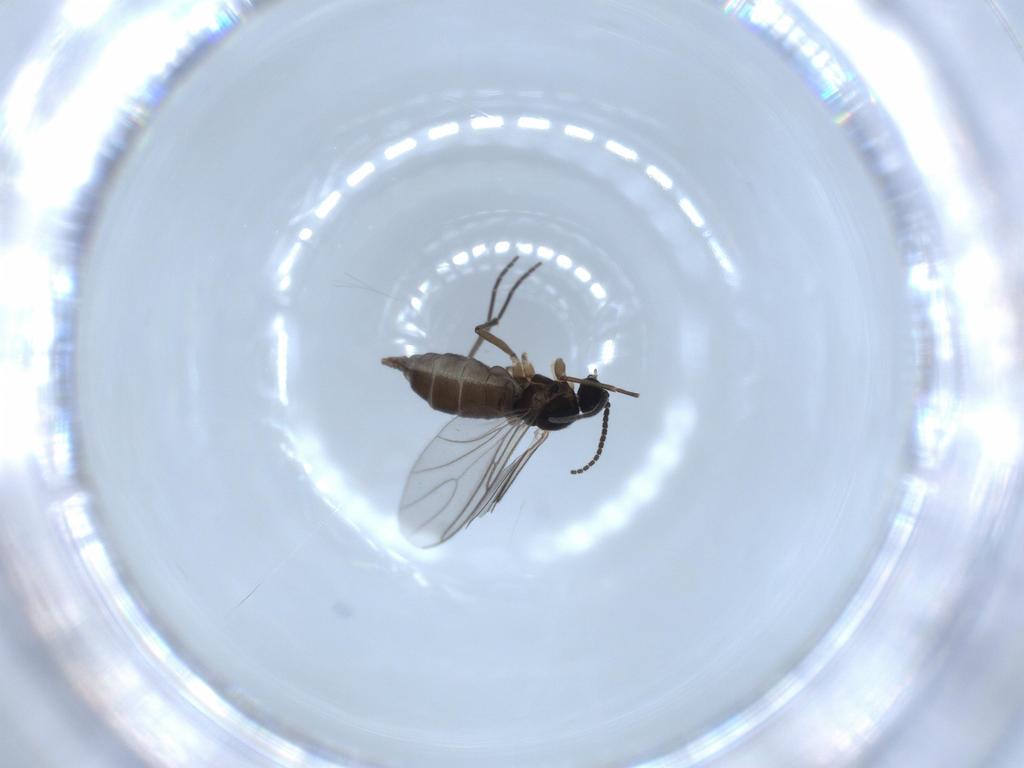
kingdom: Animalia
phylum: Arthropoda
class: Insecta
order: Diptera
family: Sciaridae
